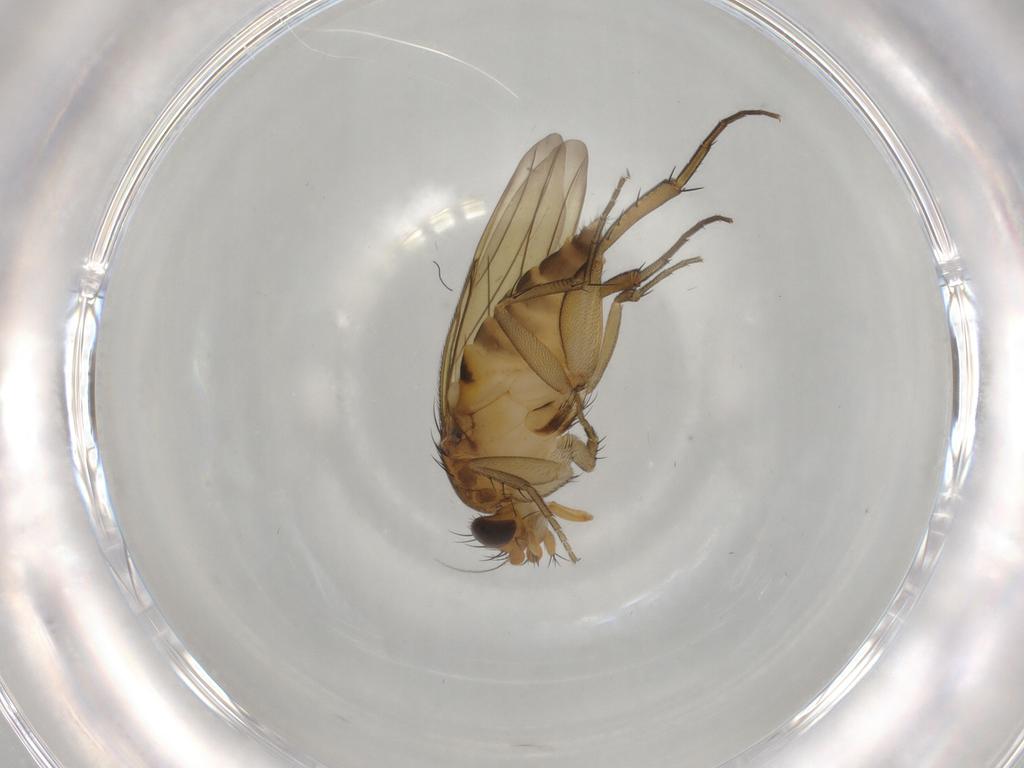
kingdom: Animalia
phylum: Arthropoda
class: Insecta
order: Diptera
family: Phoridae
